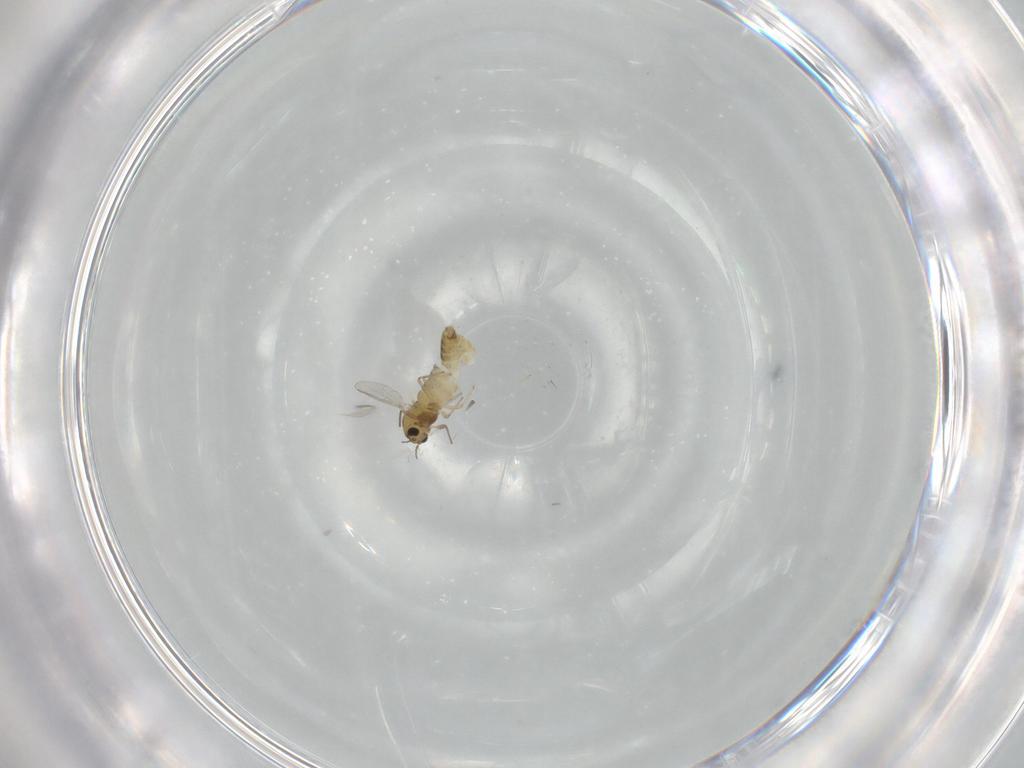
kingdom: Animalia
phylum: Arthropoda
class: Insecta
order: Diptera
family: Chironomidae
